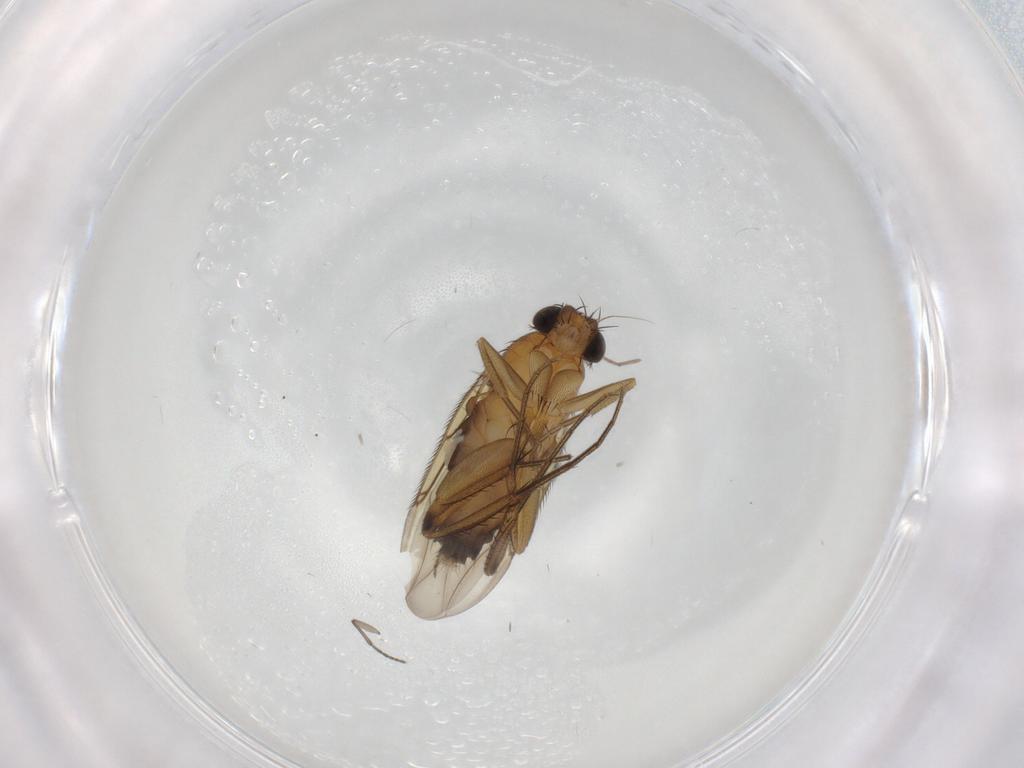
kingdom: Animalia
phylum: Arthropoda
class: Insecta
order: Diptera
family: Phoridae
